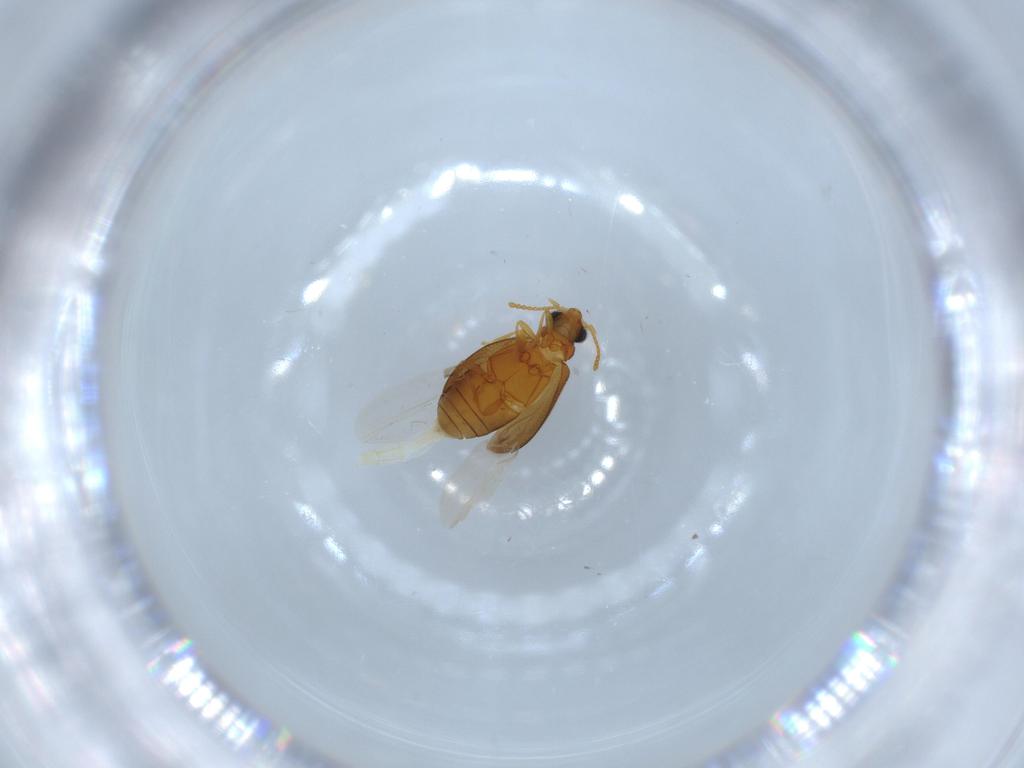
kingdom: Animalia
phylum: Arthropoda
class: Insecta
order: Coleoptera
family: Aderidae
